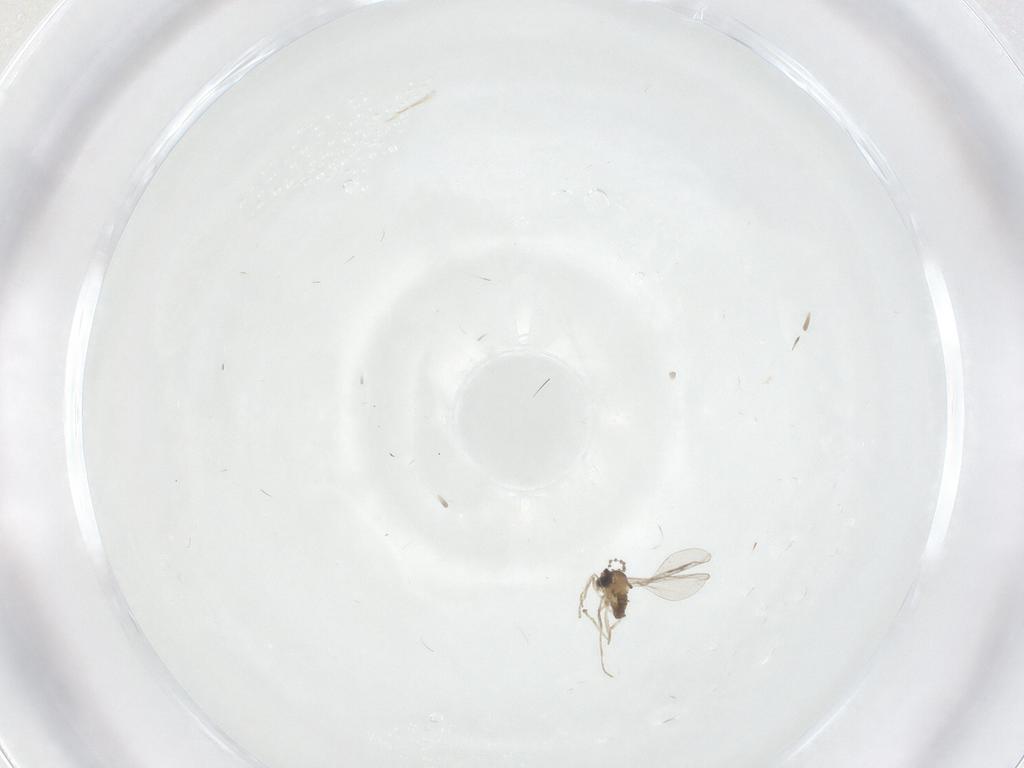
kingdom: Animalia
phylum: Arthropoda
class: Insecta
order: Diptera
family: Cecidomyiidae
